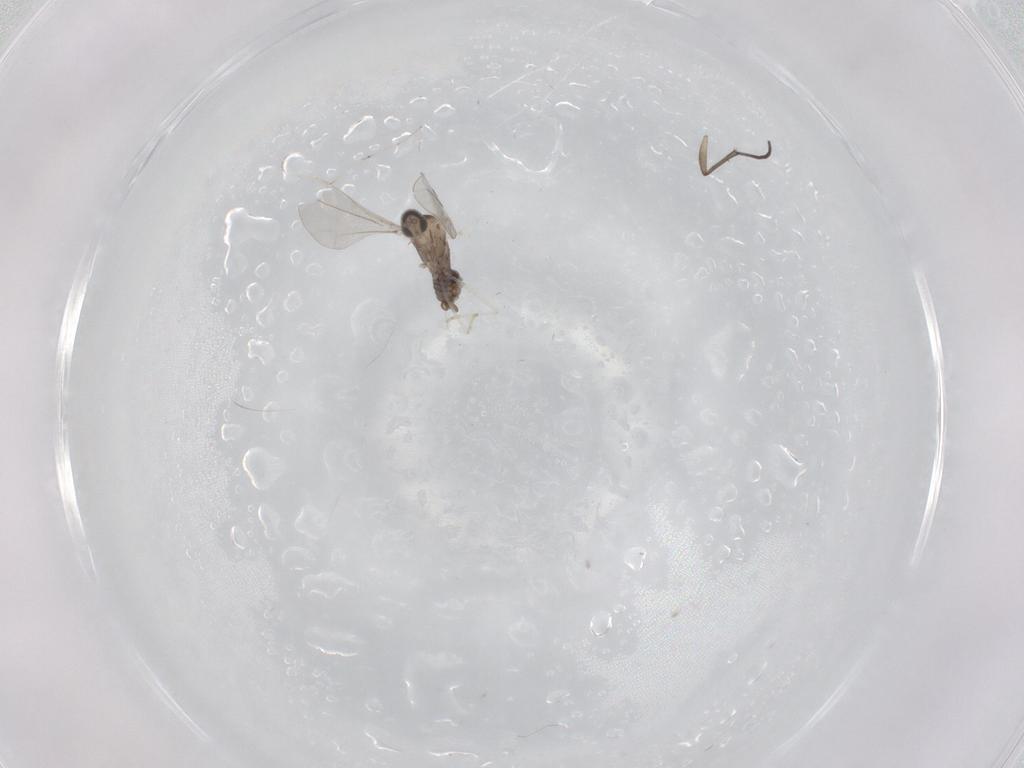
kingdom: Animalia
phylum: Arthropoda
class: Insecta
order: Diptera
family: Cecidomyiidae
